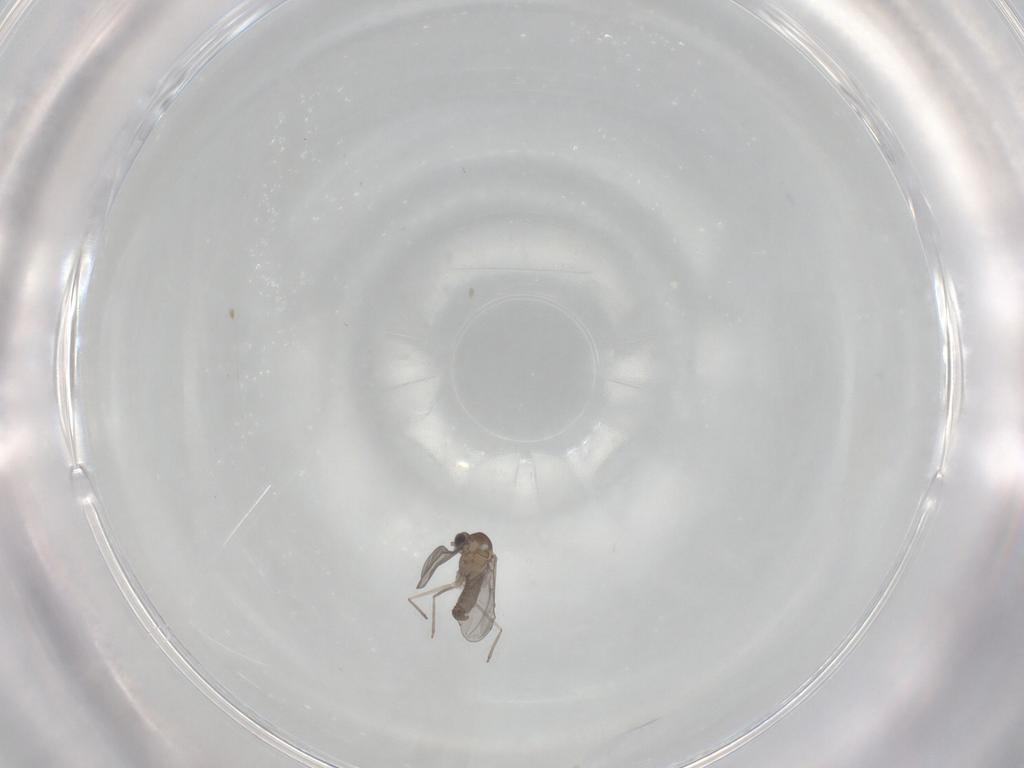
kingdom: Animalia
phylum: Arthropoda
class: Insecta
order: Diptera
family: Cecidomyiidae
